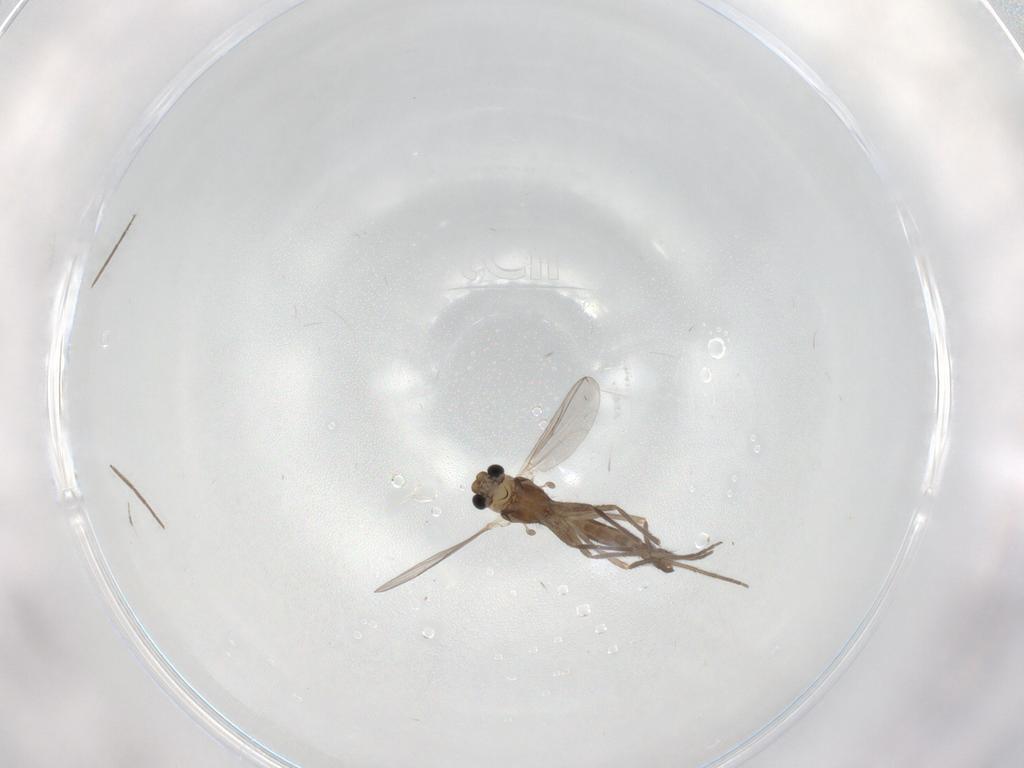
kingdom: Animalia
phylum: Arthropoda
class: Insecta
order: Diptera
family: Chironomidae
